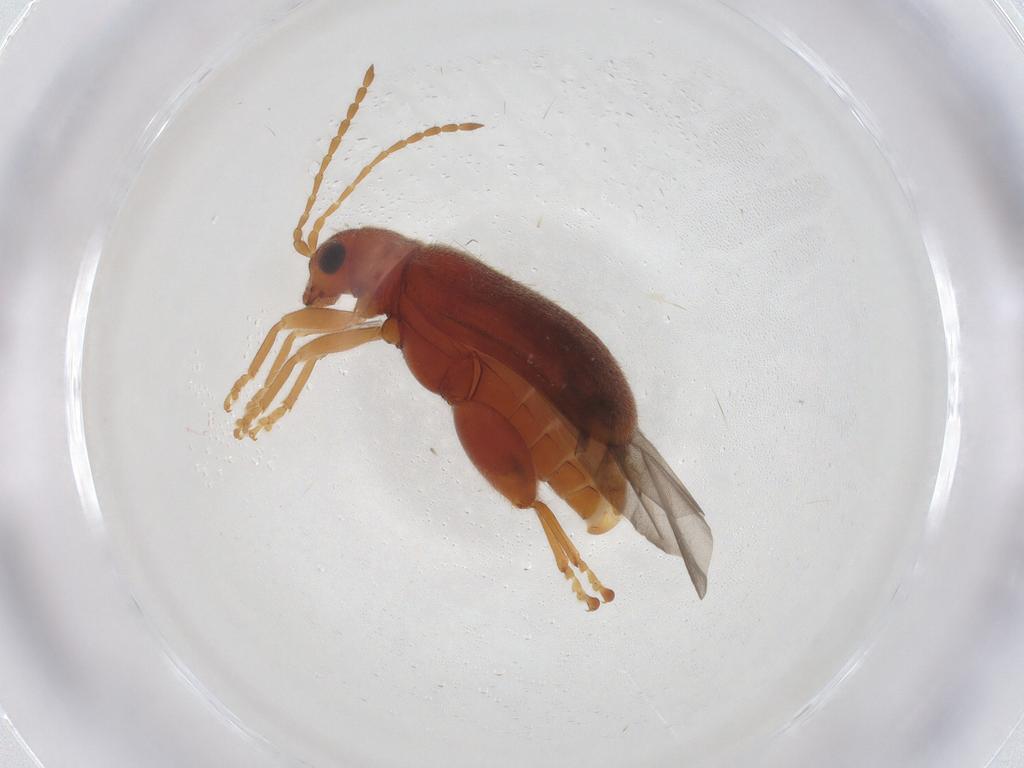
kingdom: Animalia
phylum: Arthropoda
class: Insecta
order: Coleoptera
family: Chrysomelidae
